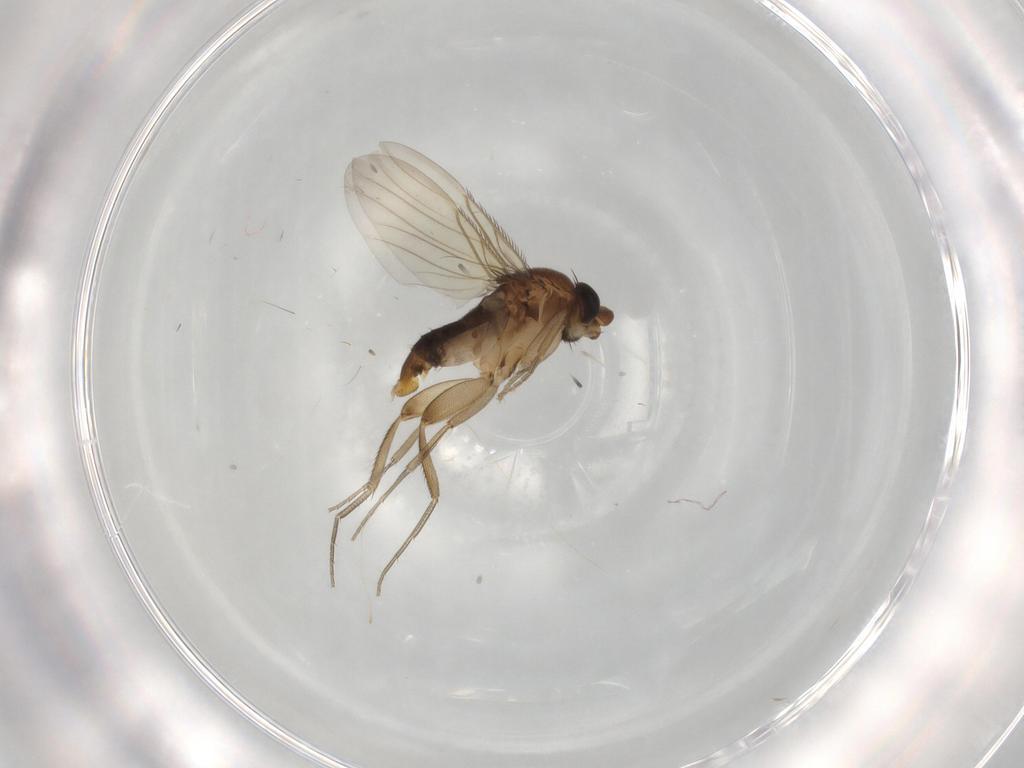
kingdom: Animalia
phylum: Arthropoda
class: Insecta
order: Diptera
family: Phoridae
